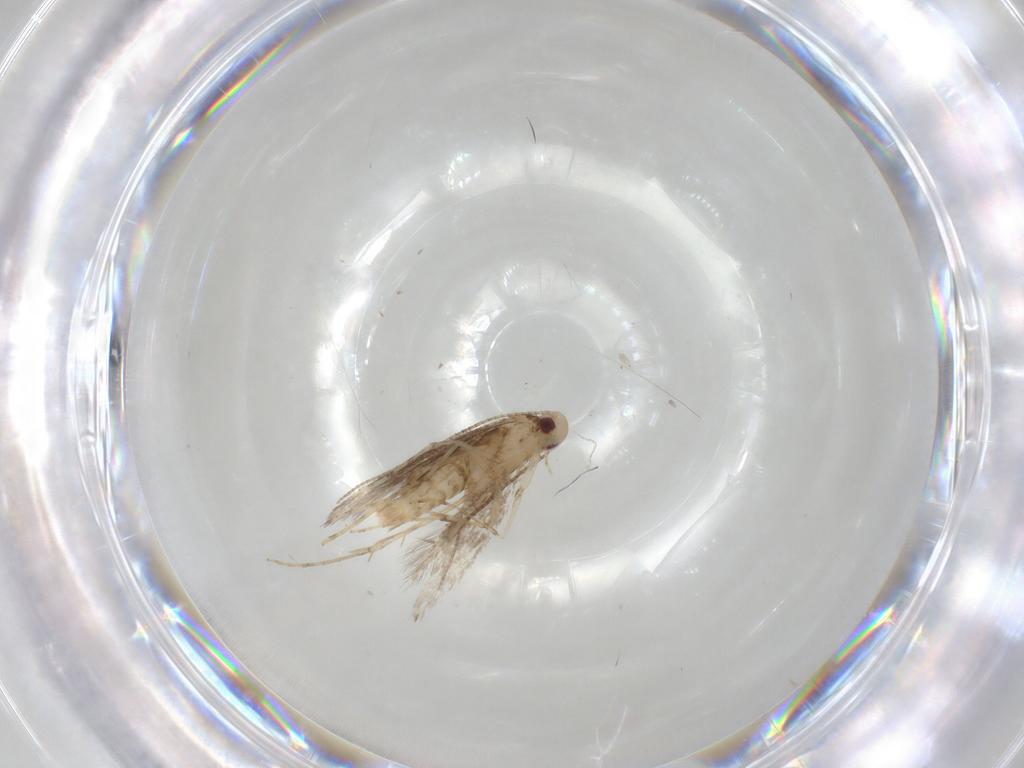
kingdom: Animalia
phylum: Arthropoda
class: Insecta
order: Lepidoptera
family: Gracillariidae
